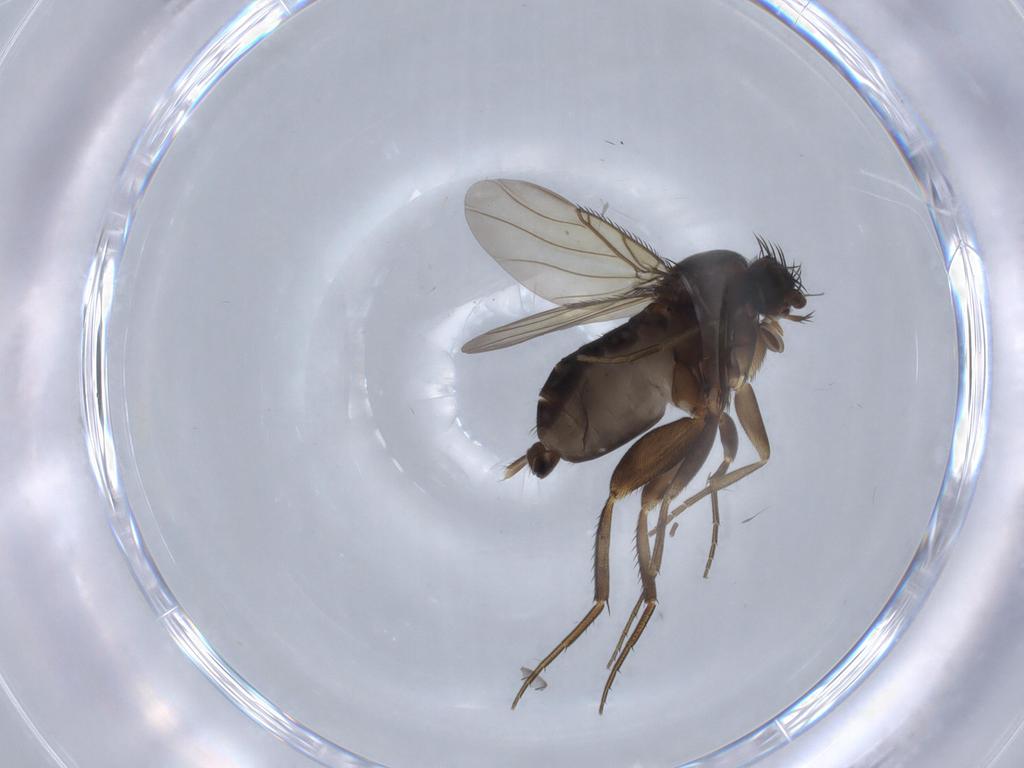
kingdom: Animalia
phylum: Arthropoda
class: Insecta
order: Diptera
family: Phoridae
